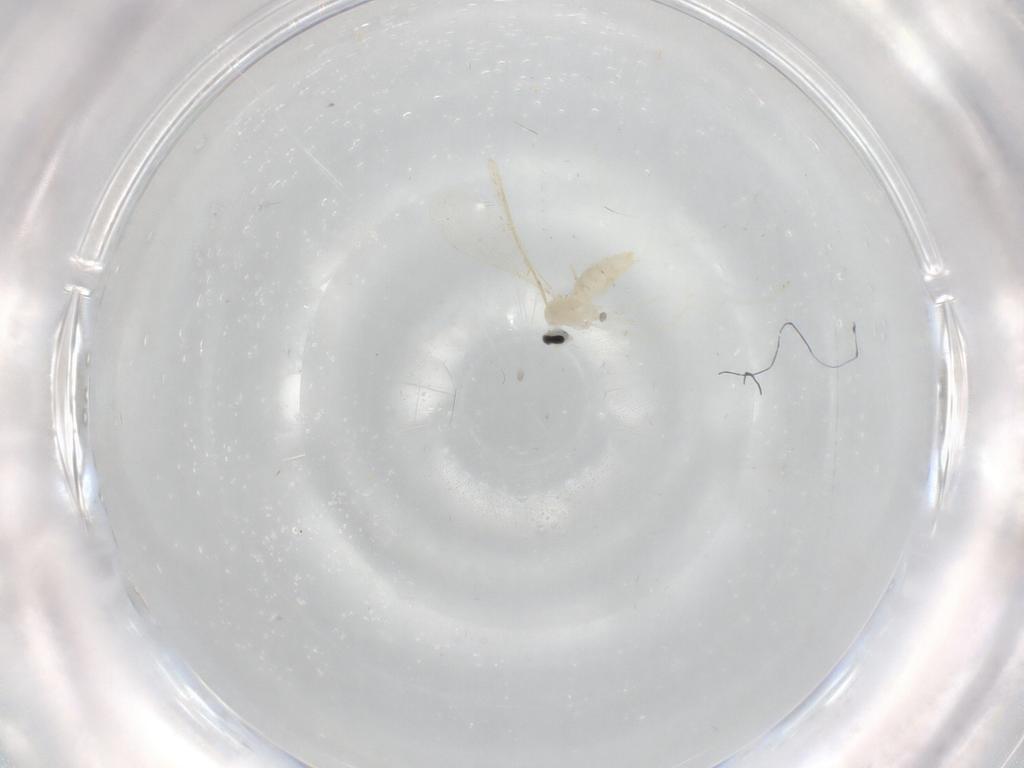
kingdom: Animalia
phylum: Arthropoda
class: Insecta
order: Diptera
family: Cecidomyiidae
